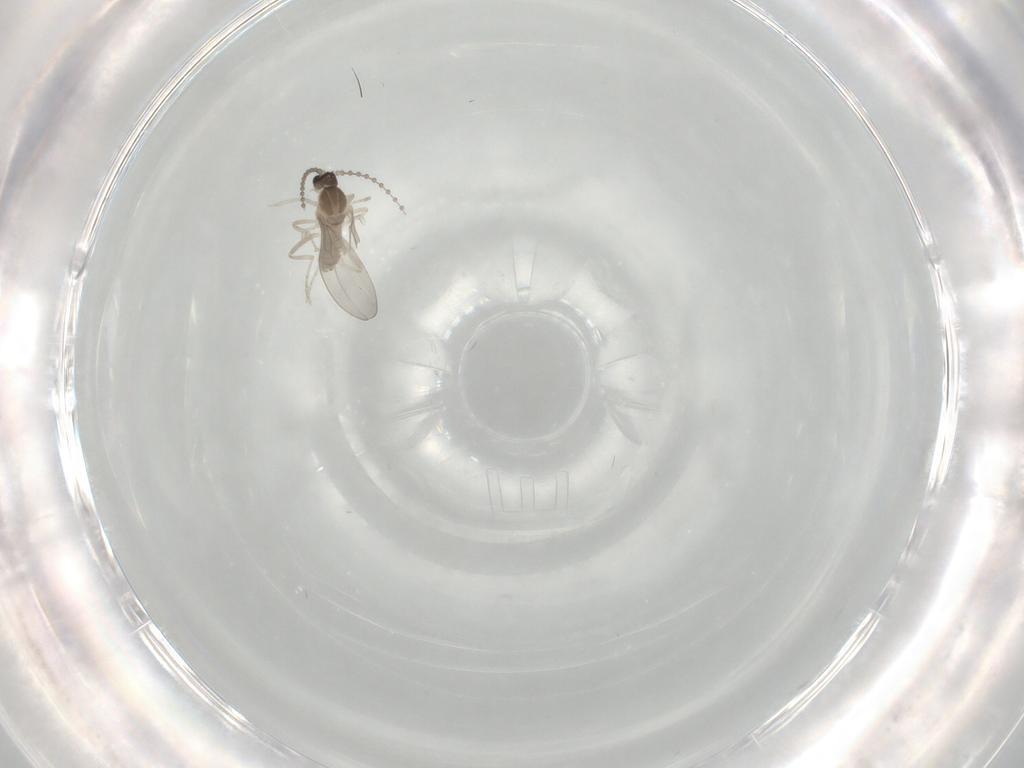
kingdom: Animalia
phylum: Arthropoda
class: Insecta
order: Diptera
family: Cecidomyiidae
